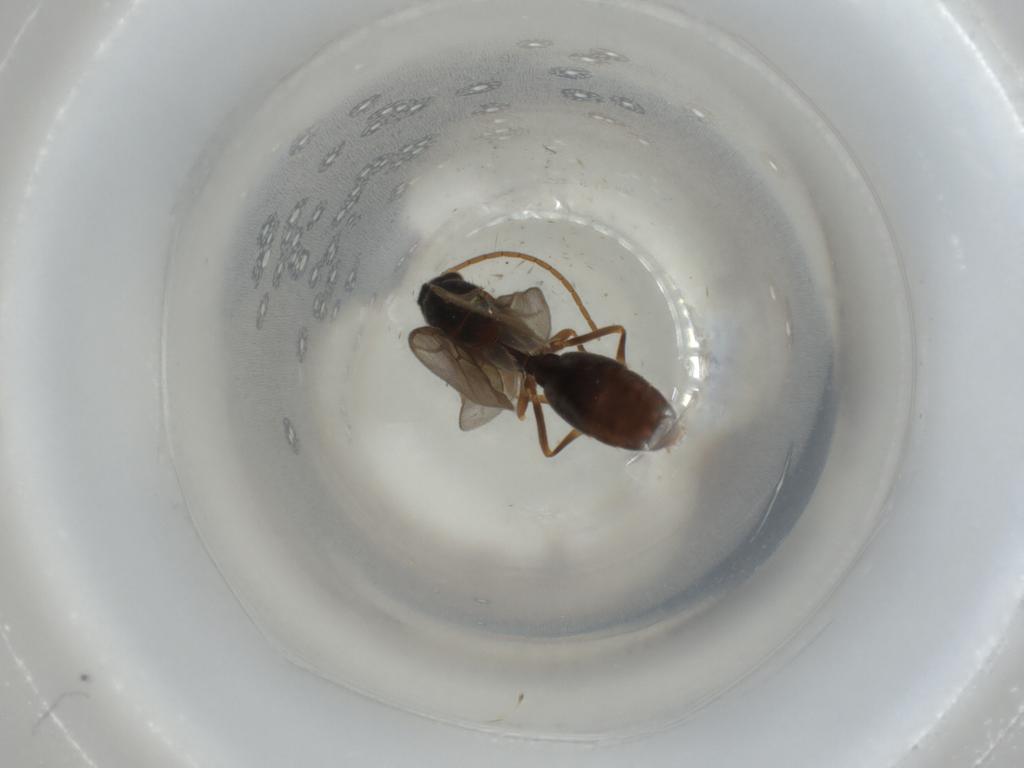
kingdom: Animalia
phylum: Arthropoda
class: Insecta
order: Hymenoptera
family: Formicidae
